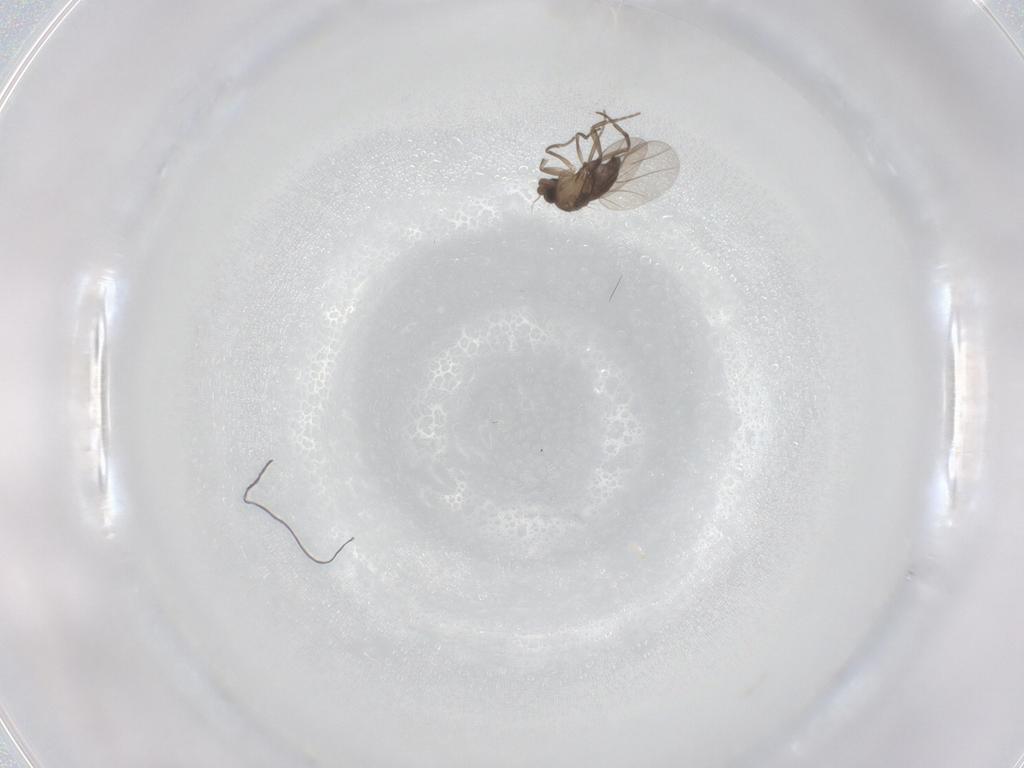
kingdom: Animalia
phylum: Arthropoda
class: Insecta
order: Diptera
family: Phoridae
